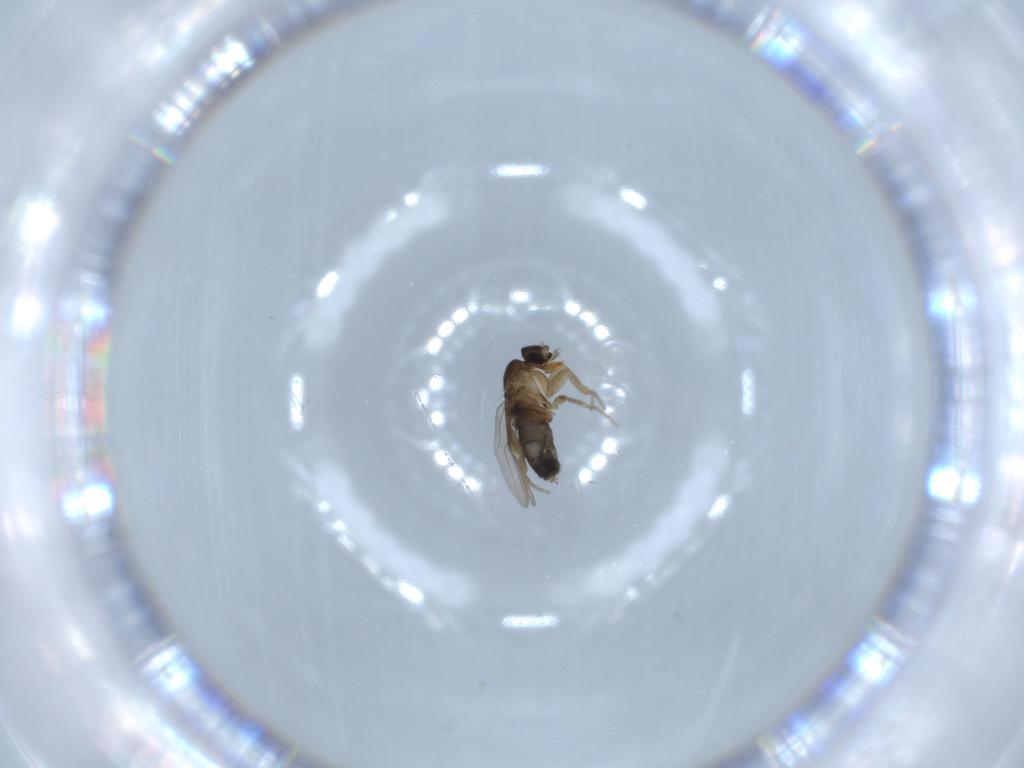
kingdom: Animalia
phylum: Arthropoda
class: Insecta
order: Diptera
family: Phoridae
